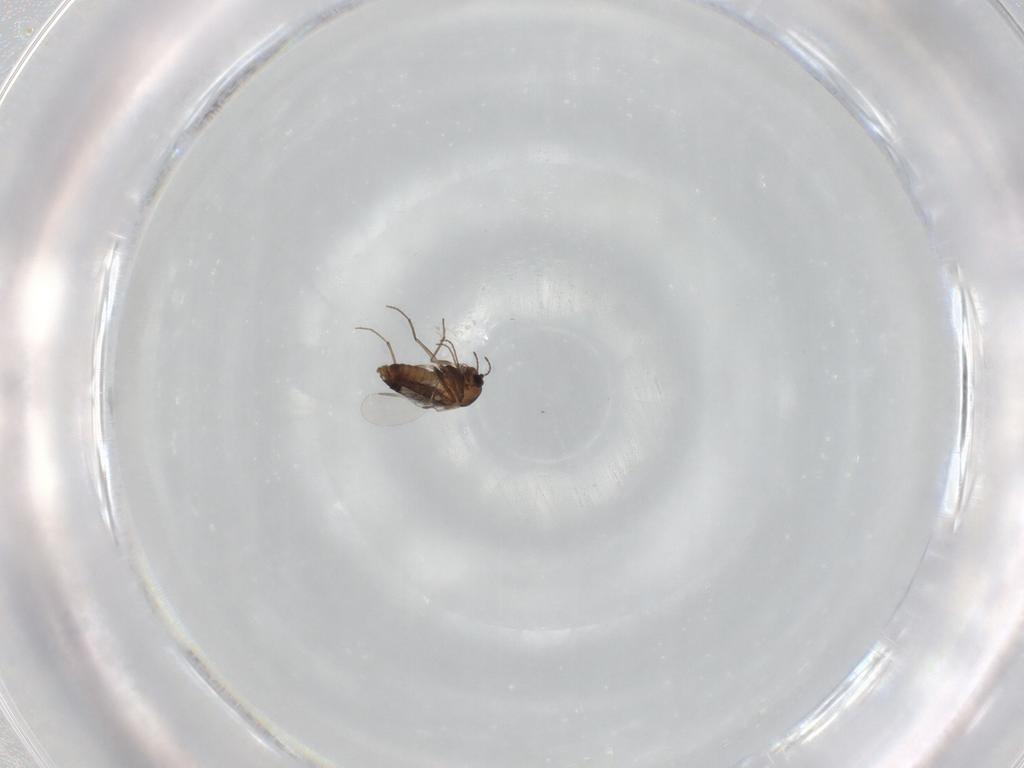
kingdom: Animalia
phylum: Arthropoda
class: Insecta
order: Diptera
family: Chironomidae
